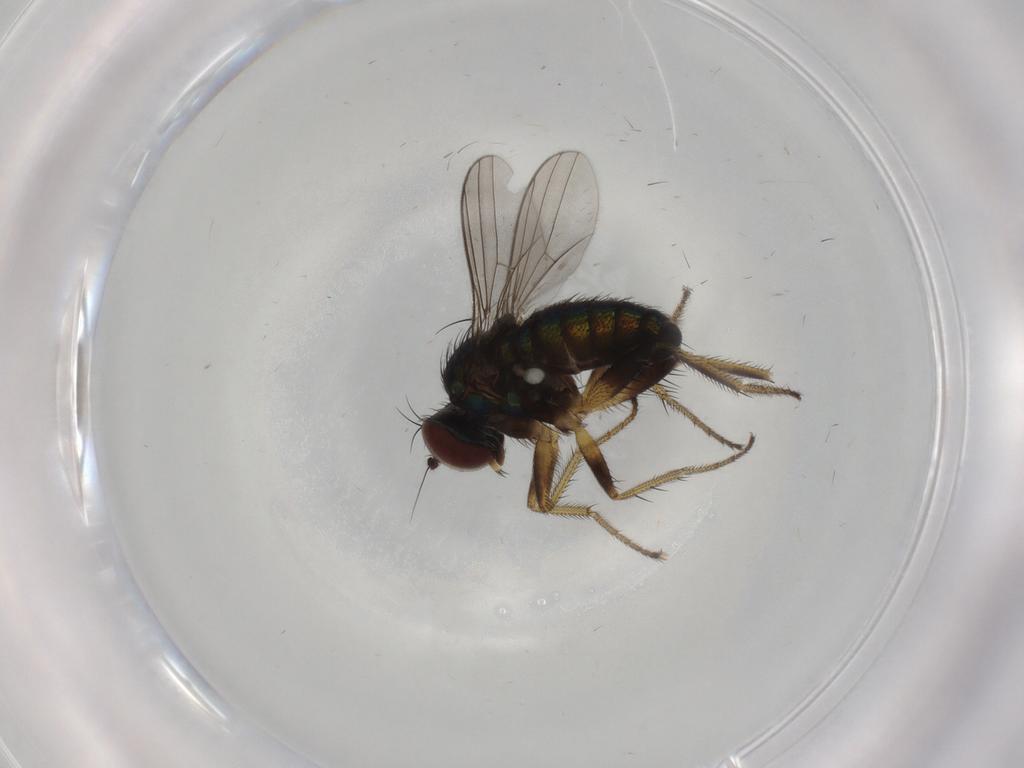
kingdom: Animalia
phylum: Arthropoda
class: Insecta
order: Diptera
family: Dolichopodidae
